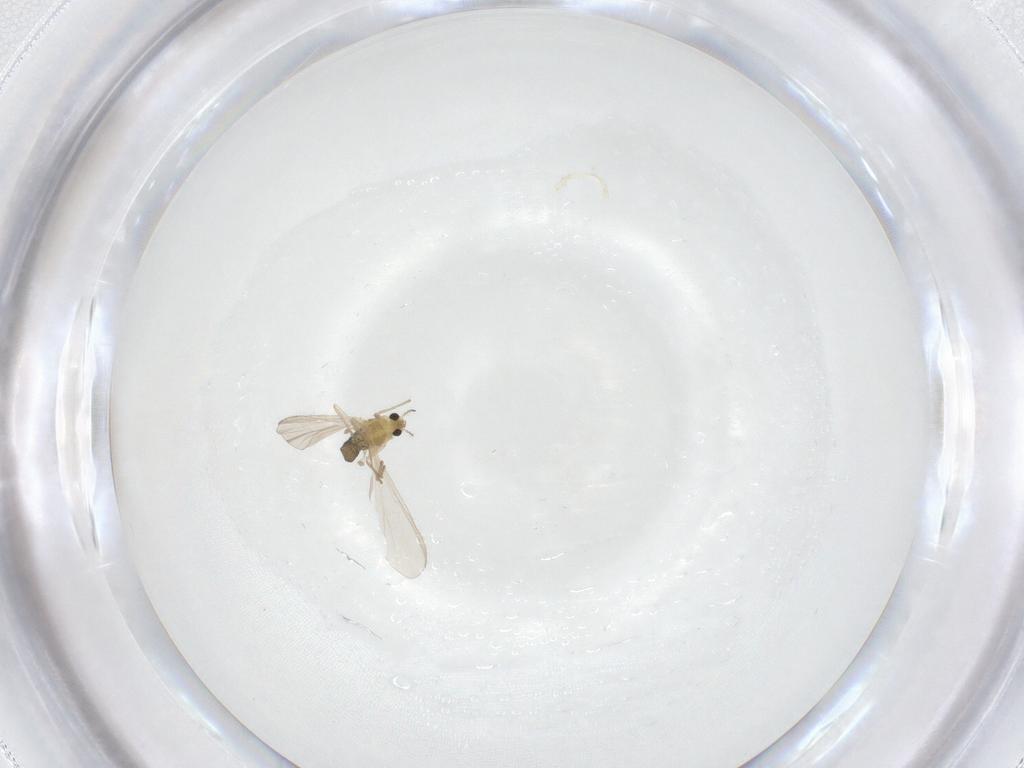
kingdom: Animalia
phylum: Arthropoda
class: Insecta
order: Diptera
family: Chironomidae
